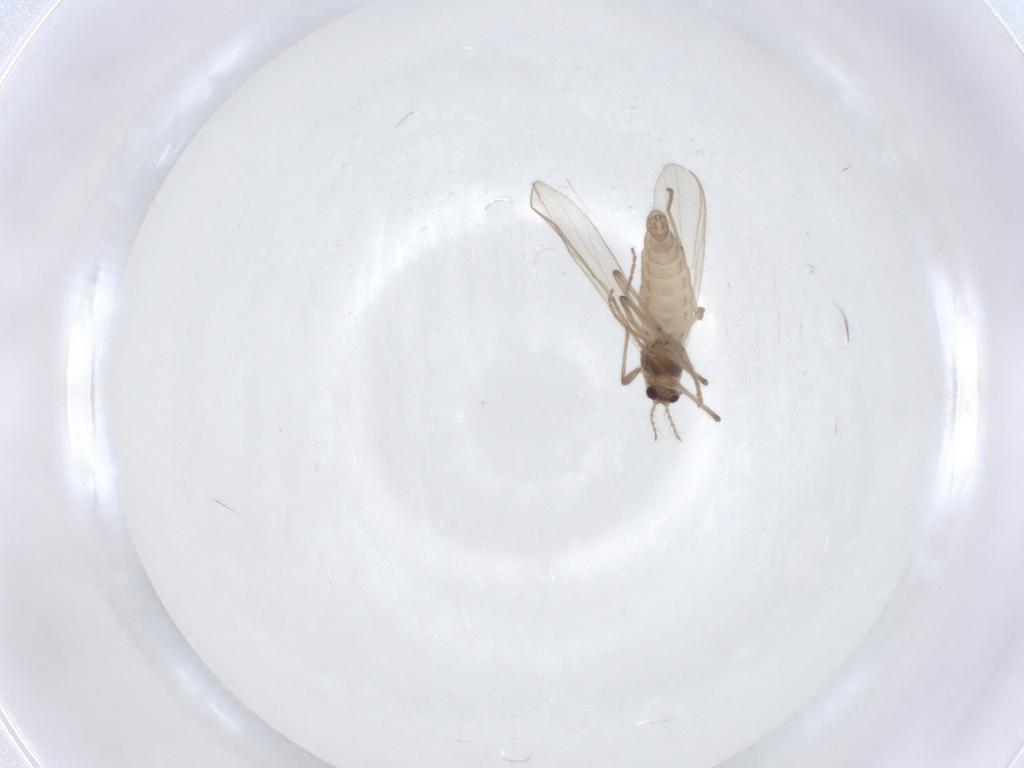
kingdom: Animalia
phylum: Arthropoda
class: Insecta
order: Diptera
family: Chironomidae
